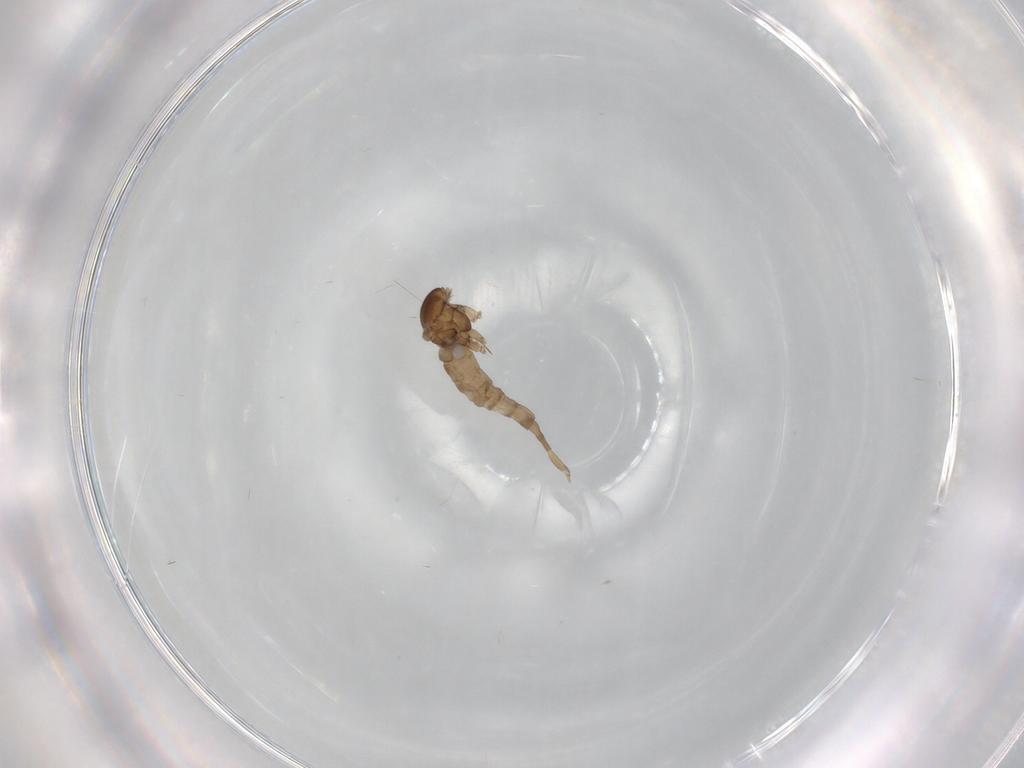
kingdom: Animalia
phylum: Arthropoda
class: Insecta
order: Diptera
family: Cecidomyiidae
